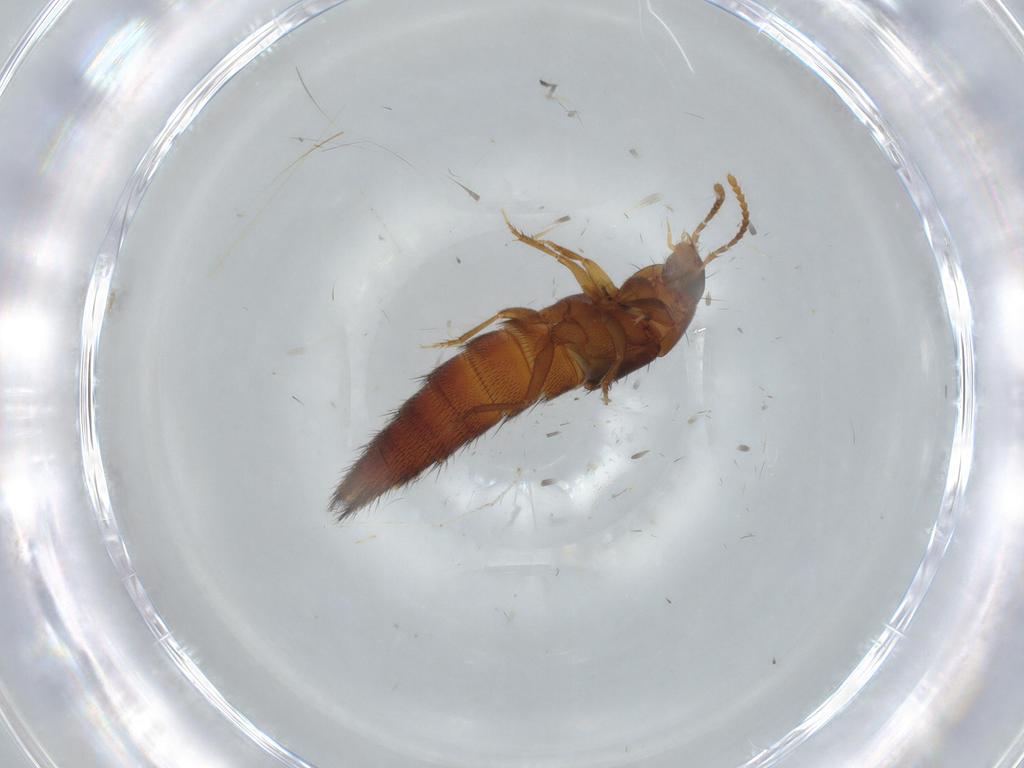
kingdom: Animalia
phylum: Arthropoda
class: Insecta
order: Coleoptera
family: Staphylinidae
